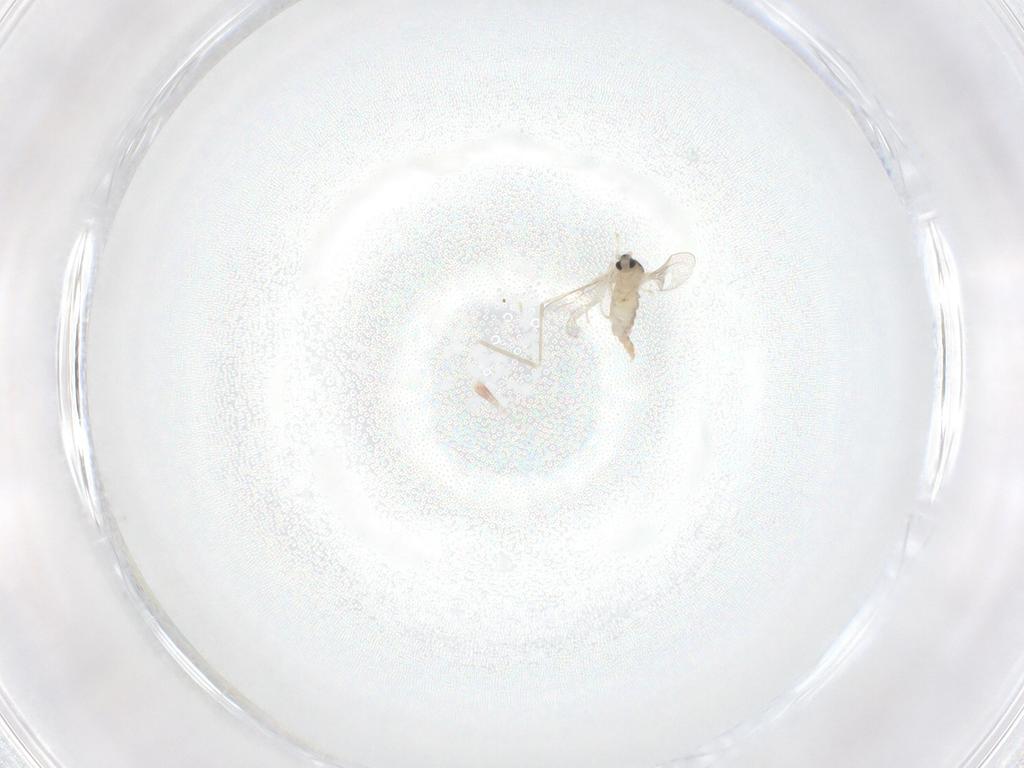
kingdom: Animalia
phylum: Arthropoda
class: Insecta
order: Diptera
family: Cecidomyiidae
